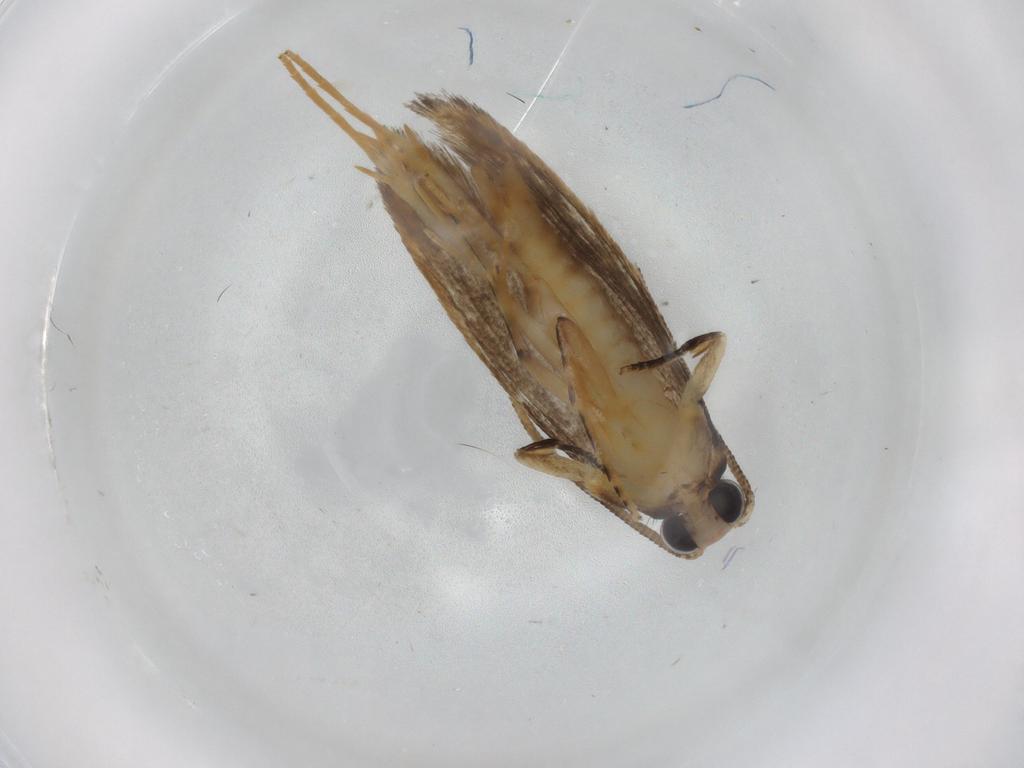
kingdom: Animalia
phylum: Arthropoda
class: Insecta
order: Lepidoptera
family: Tineidae
